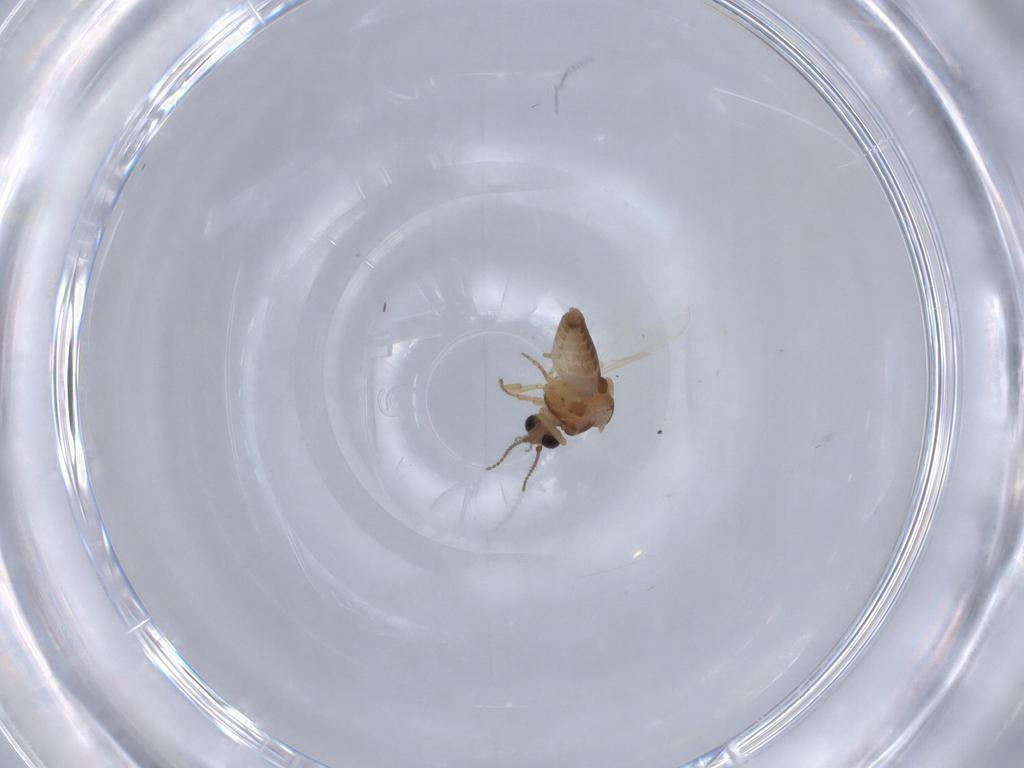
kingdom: Animalia
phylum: Arthropoda
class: Insecta
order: Diptera
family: Ceratopogonidae
